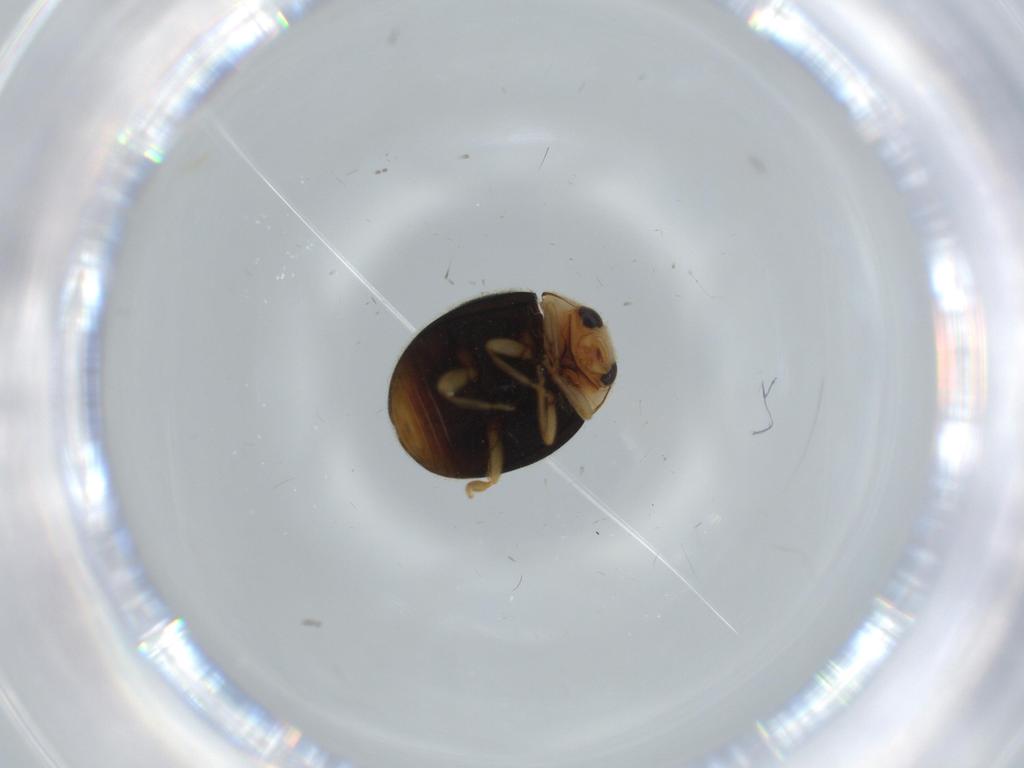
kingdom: Animalia
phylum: Arthropoda
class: Insecta
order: Coleoptera
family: Coccinellidae
